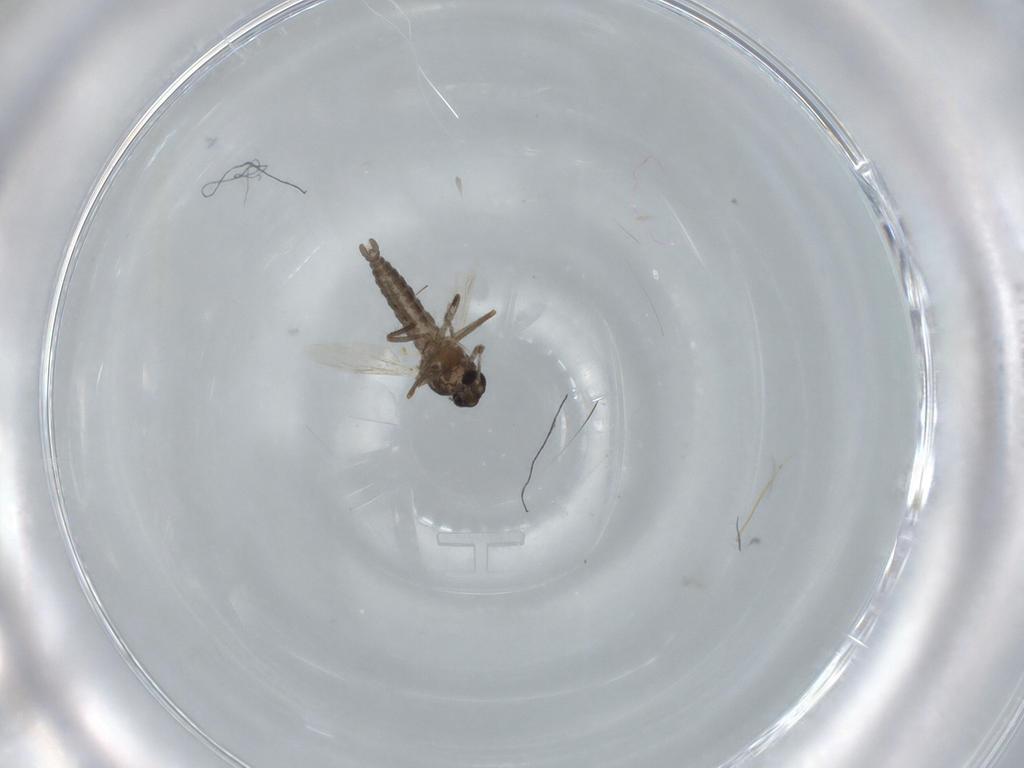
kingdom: Animalia
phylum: Arthropoda
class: Insecta
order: Diptera
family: Ceratopogonidae
